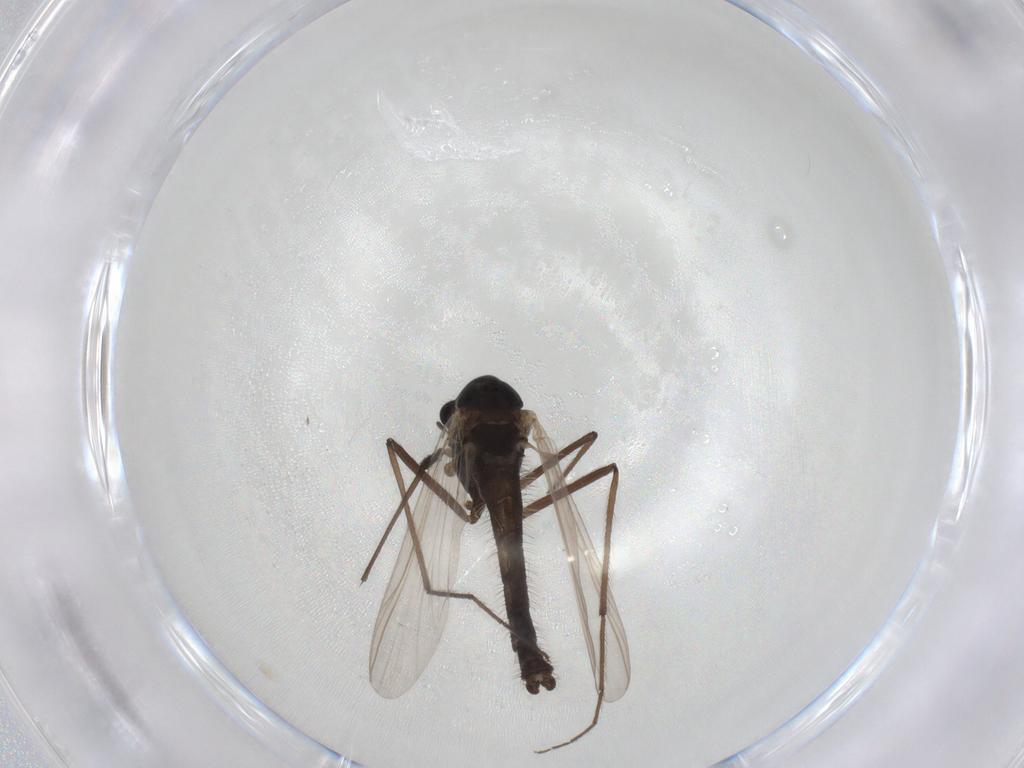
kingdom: Animalia
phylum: Arthropoda
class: Insecta
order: Diptera
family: Chironomidae
